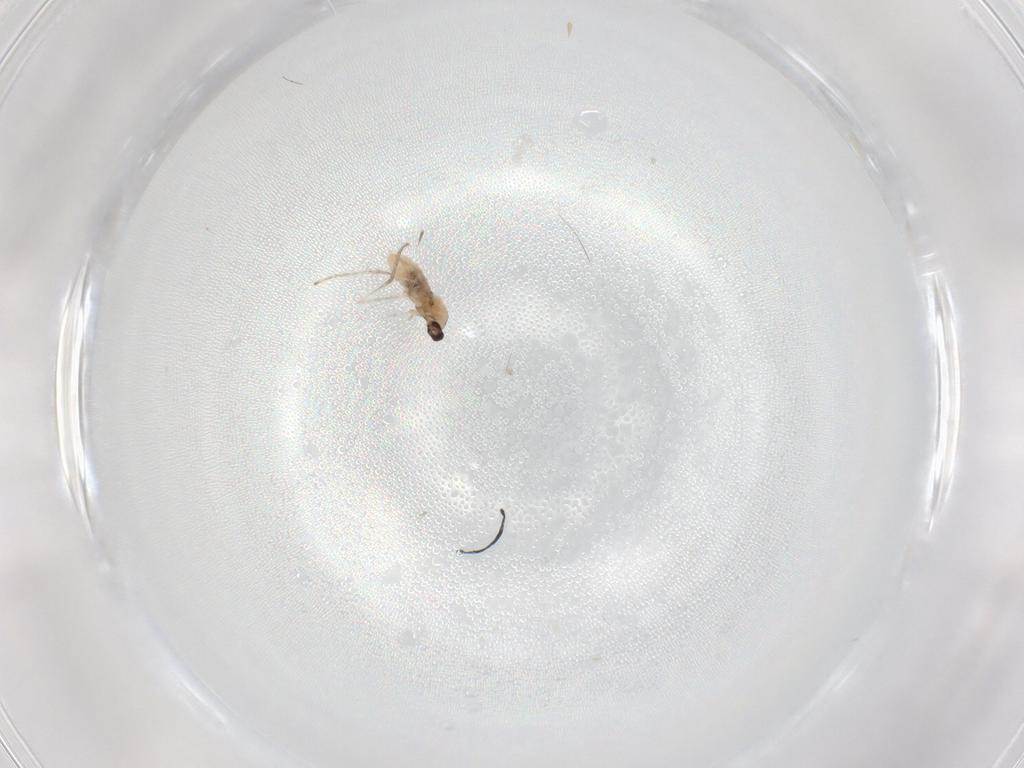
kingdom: Animalia
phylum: Arthropoda
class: Insecta
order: Diptera
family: Cecidomyiidae
